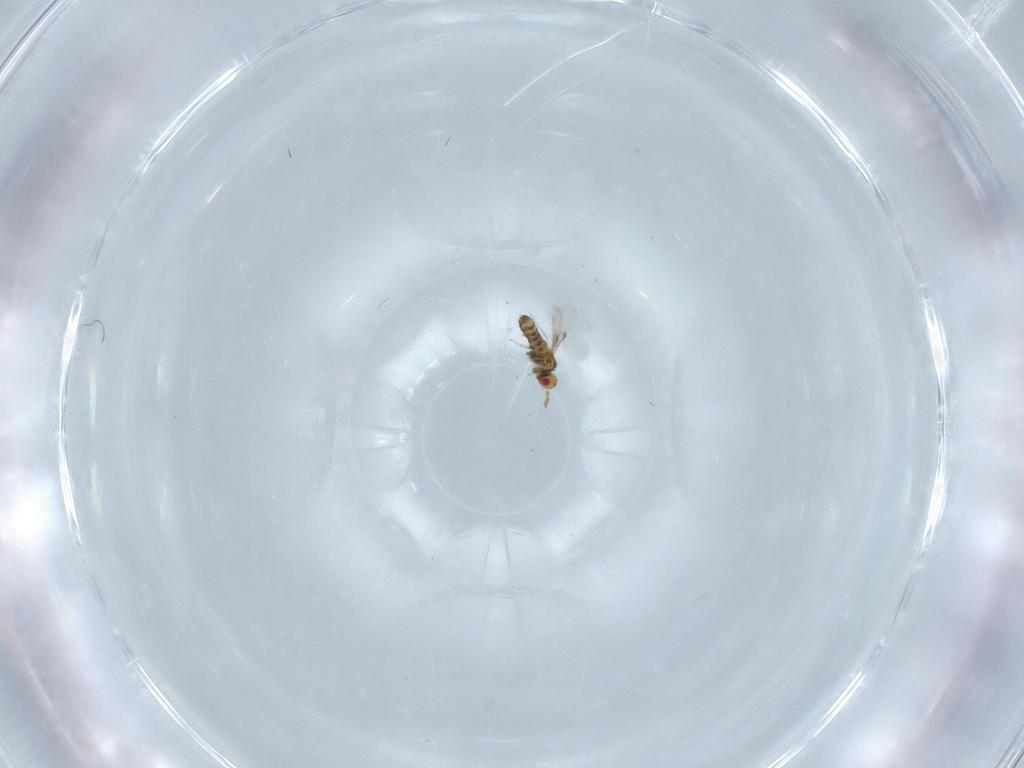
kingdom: Animalia
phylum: Arthropoda
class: Insecta
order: Hymenoptera
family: Trichogrammatidae
